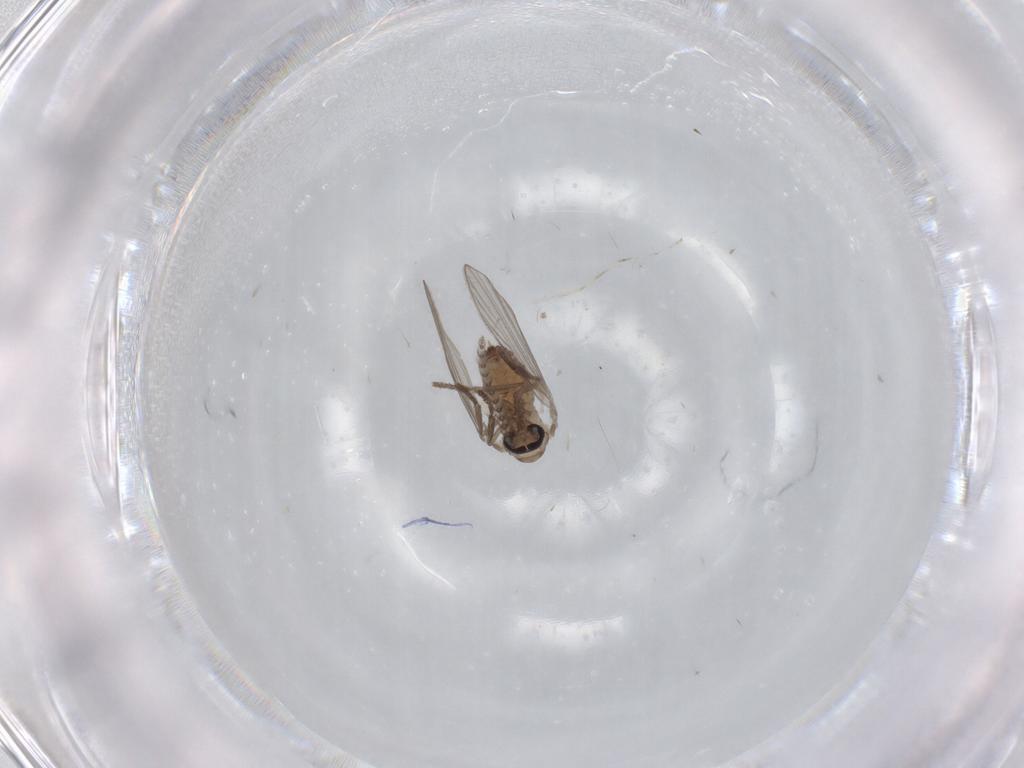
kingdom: Animalia
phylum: Arthropoda
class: Insecta
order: Diptera
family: Psychodidae
